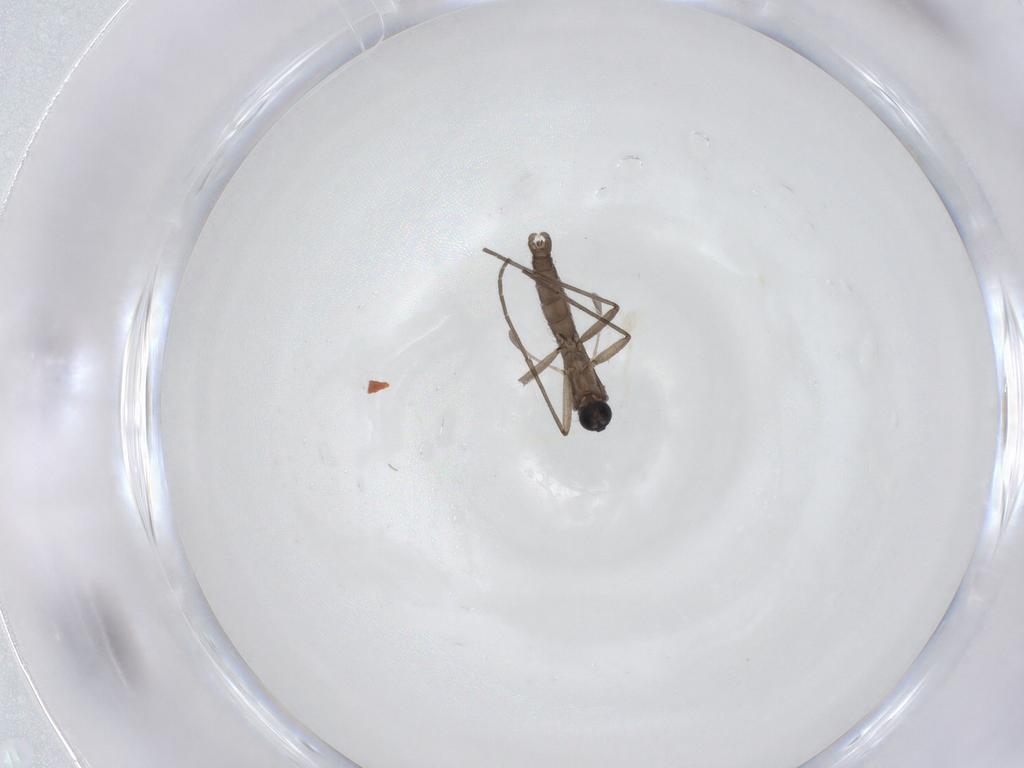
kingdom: Animalia
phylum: Arthropoda
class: Insecta
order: Diptera
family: Sciaridae
